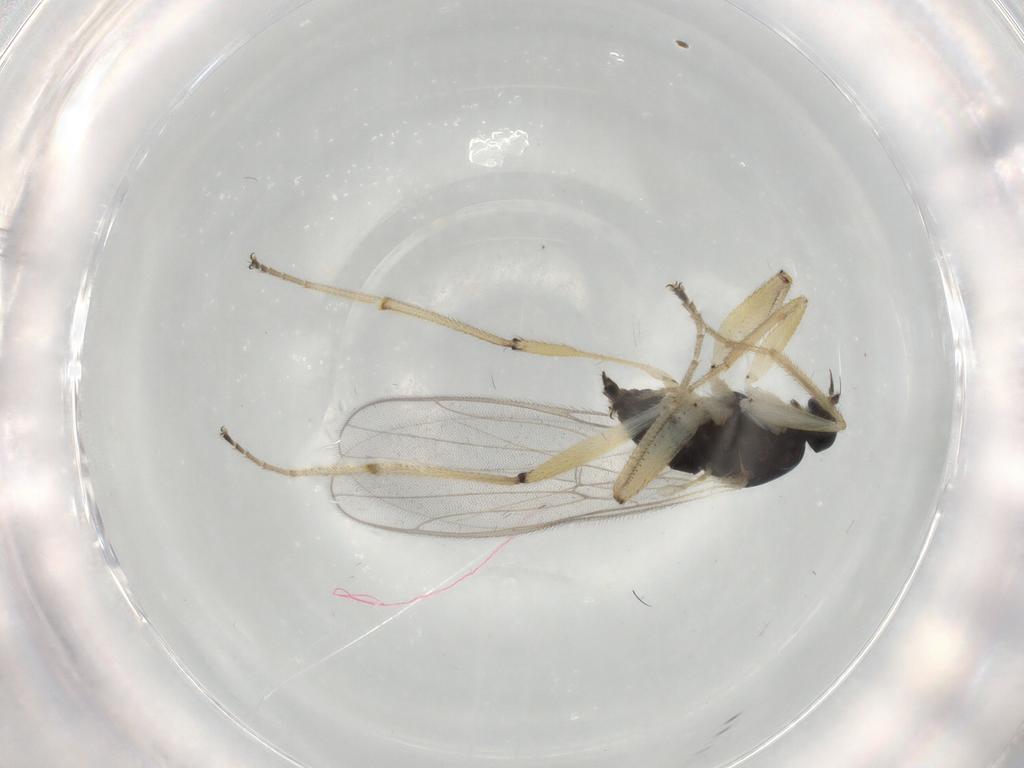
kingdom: Animalia
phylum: Arthropoda
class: Insecta
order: Diptera
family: Hybotidae
